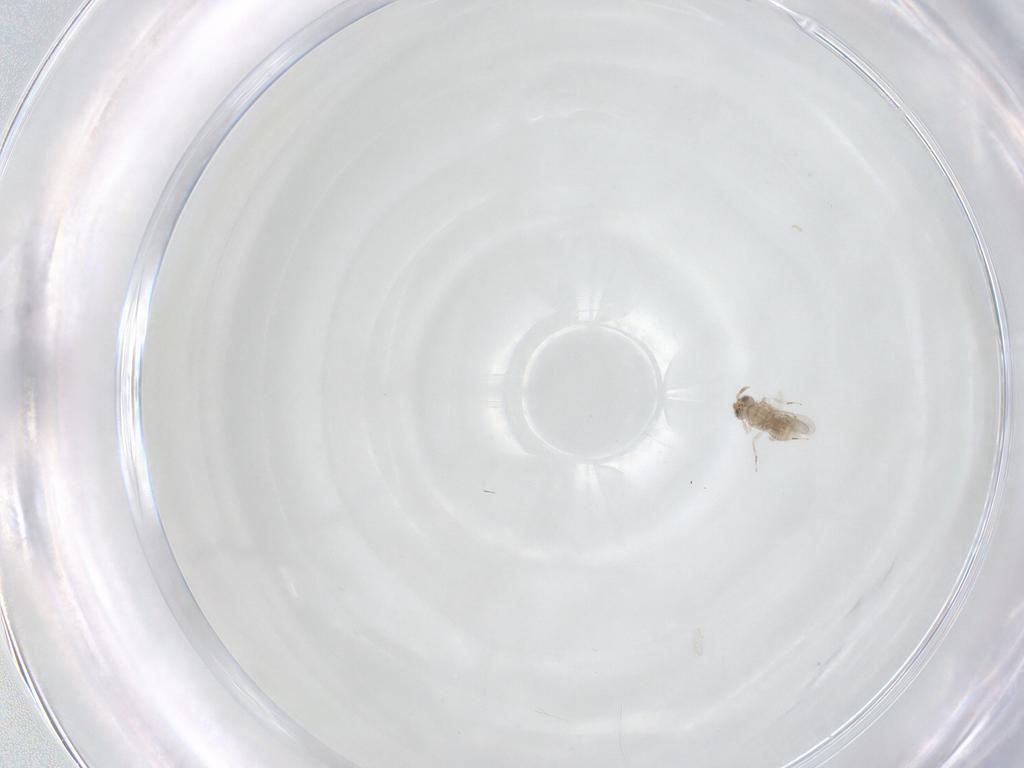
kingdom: Animalia
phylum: Arthropoda
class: Insecta
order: Hymenoptera
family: Aphelinidae
